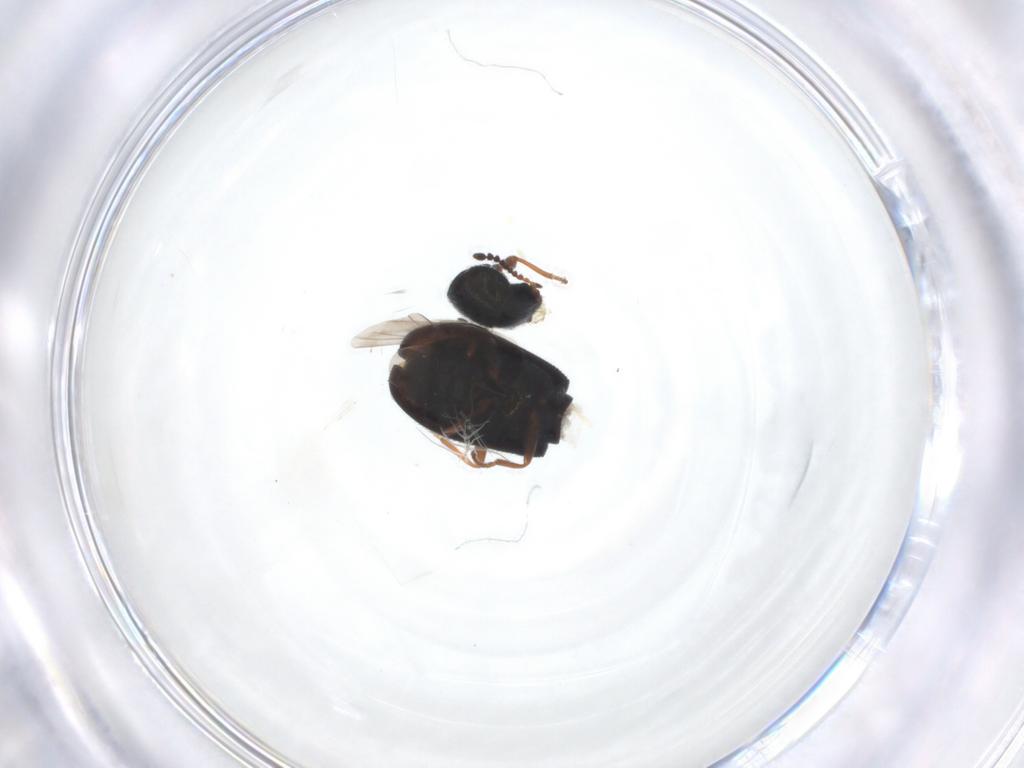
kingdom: Animalia
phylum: Arthropoda
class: Insecta
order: Coleoptera
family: Melyridae
